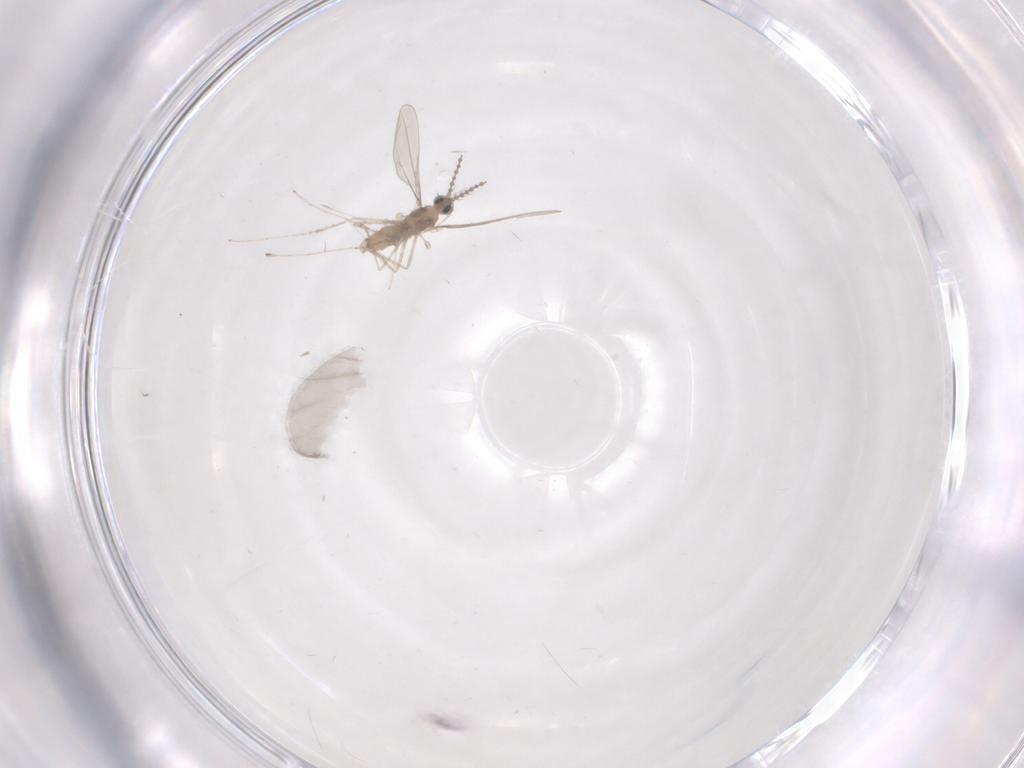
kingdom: Animalia
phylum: Arthropoda
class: Insecta
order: Diptera
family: Cecidomyiidae
